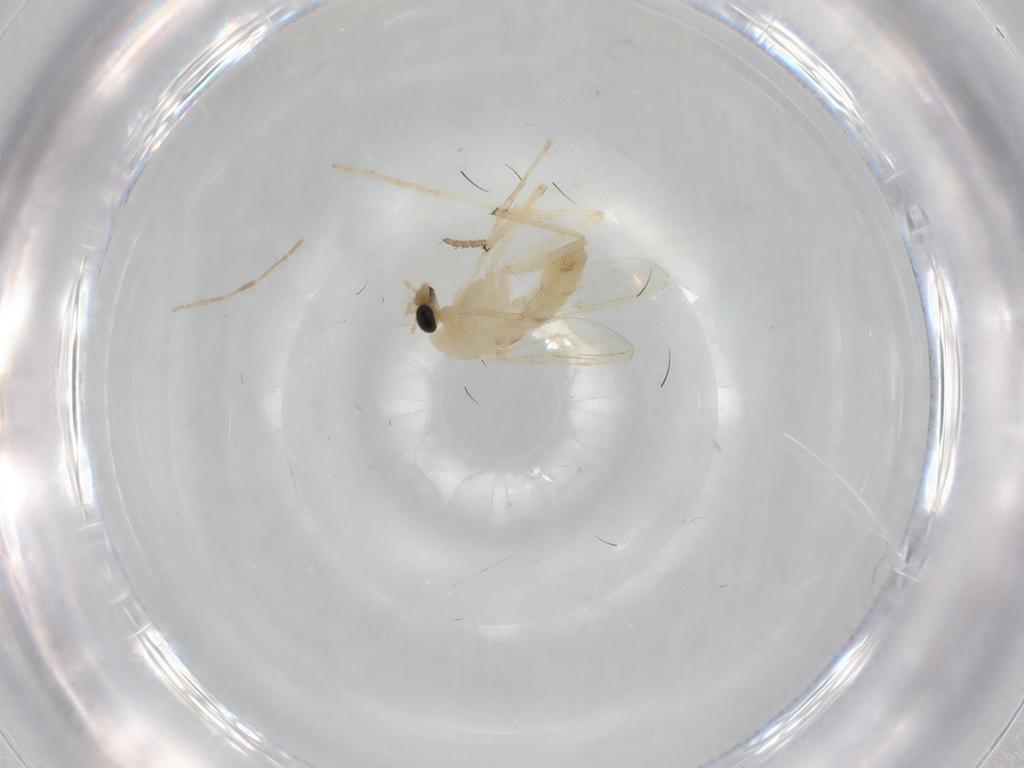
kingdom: Animalia
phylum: Arthropoda
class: Insecta
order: Diptera
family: Chironomidae
